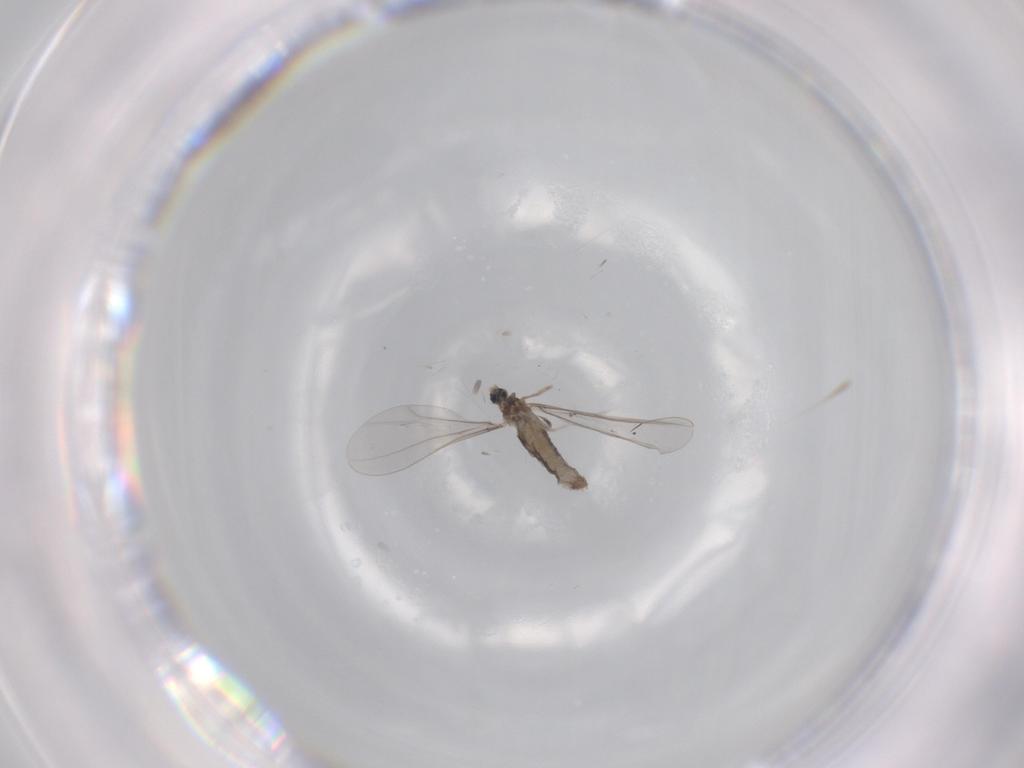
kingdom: Animalia
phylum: Arthropoda
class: Insecta
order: Diptera
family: Cecidomyiidae
